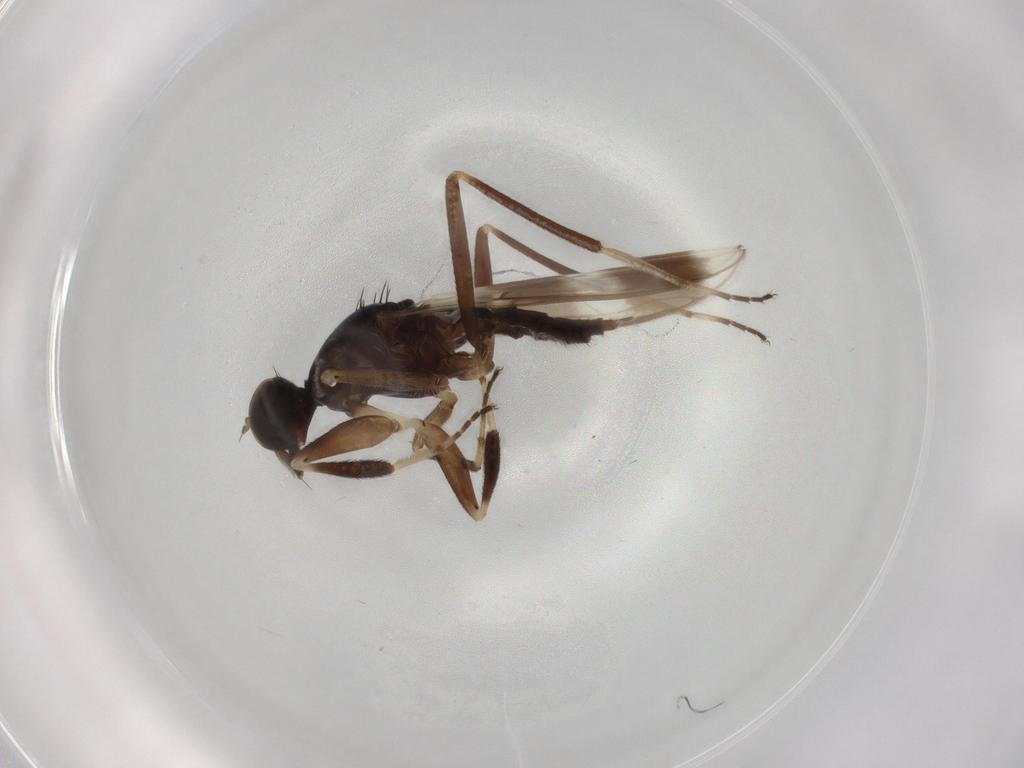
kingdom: Animalia
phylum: Arthropoda
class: Insecta
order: Diptera
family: Hybotidae
